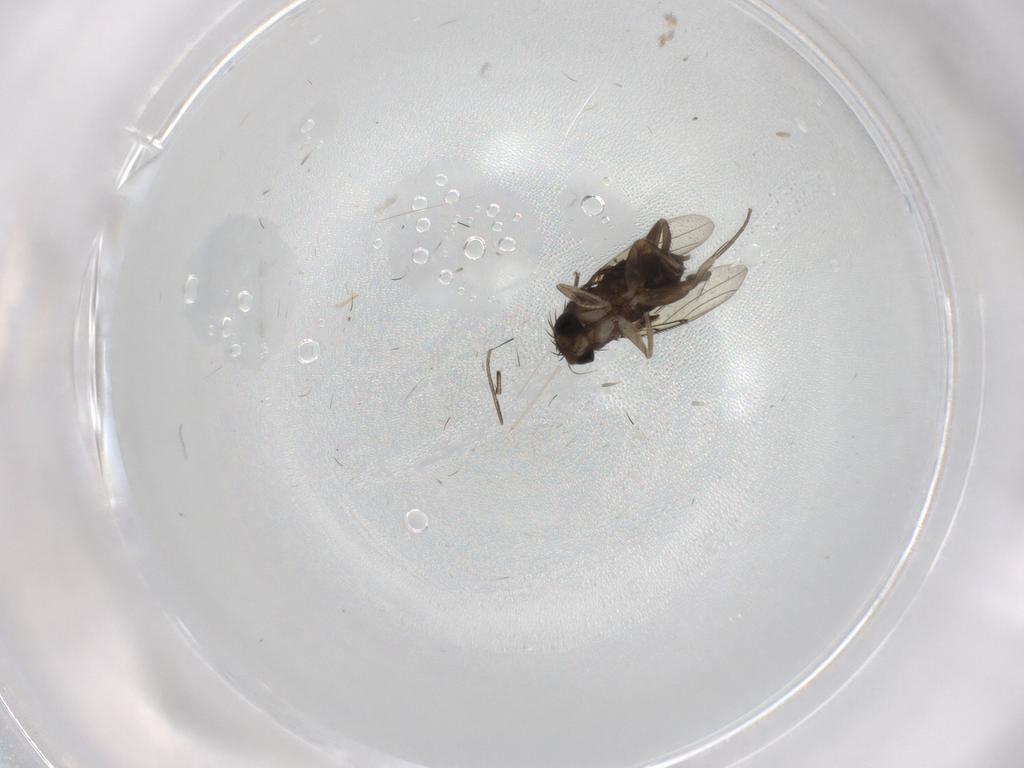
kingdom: Animalia
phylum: Arthropoda
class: Insecta
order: Diptera
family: Phoridae
